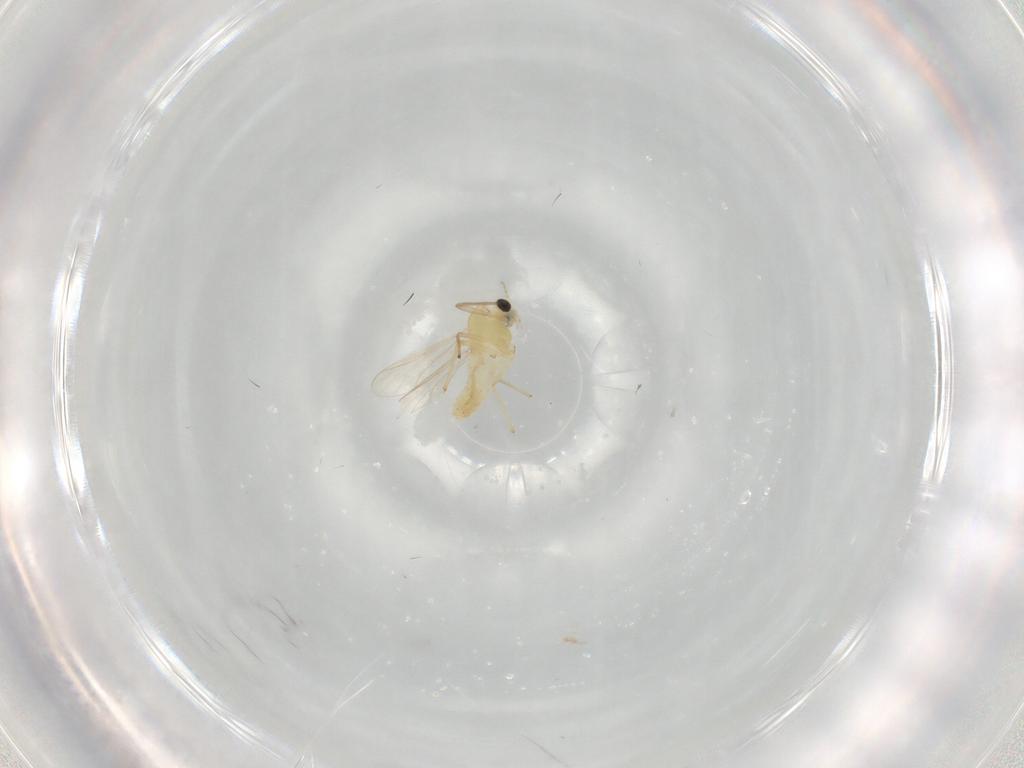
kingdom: Animalia
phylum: Arthropoda
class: Insecta
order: Diptera
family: Chironomidae
